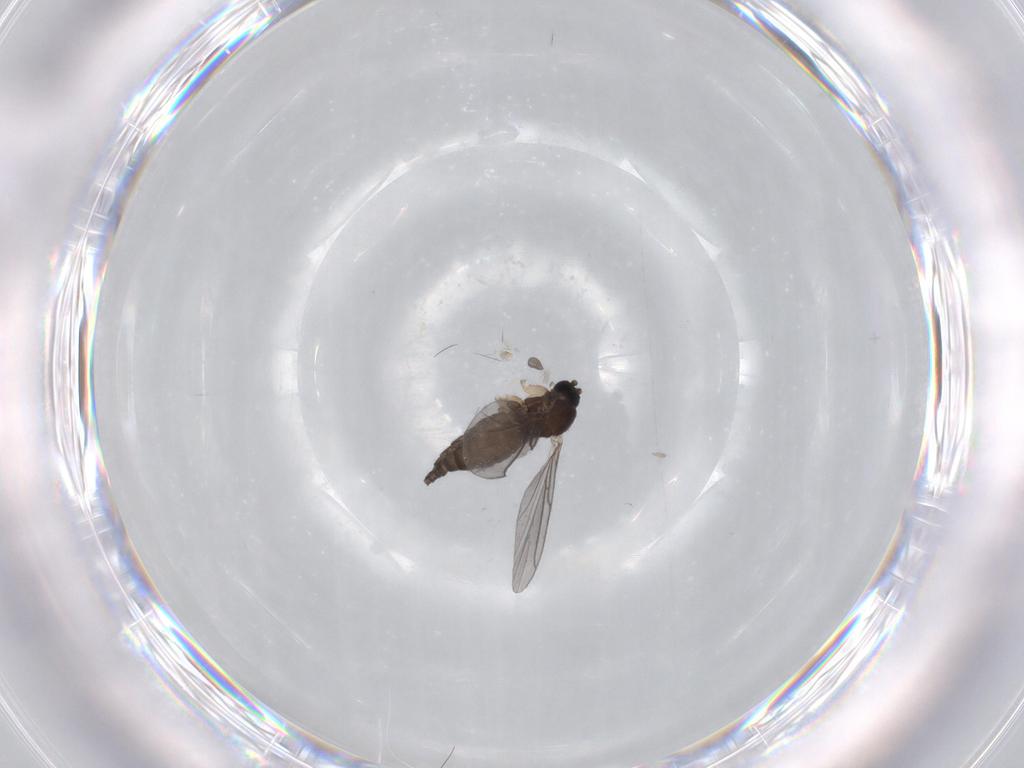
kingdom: Animalia
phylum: Arthropoda
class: Insecta
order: Diptera
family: Sciaridae
